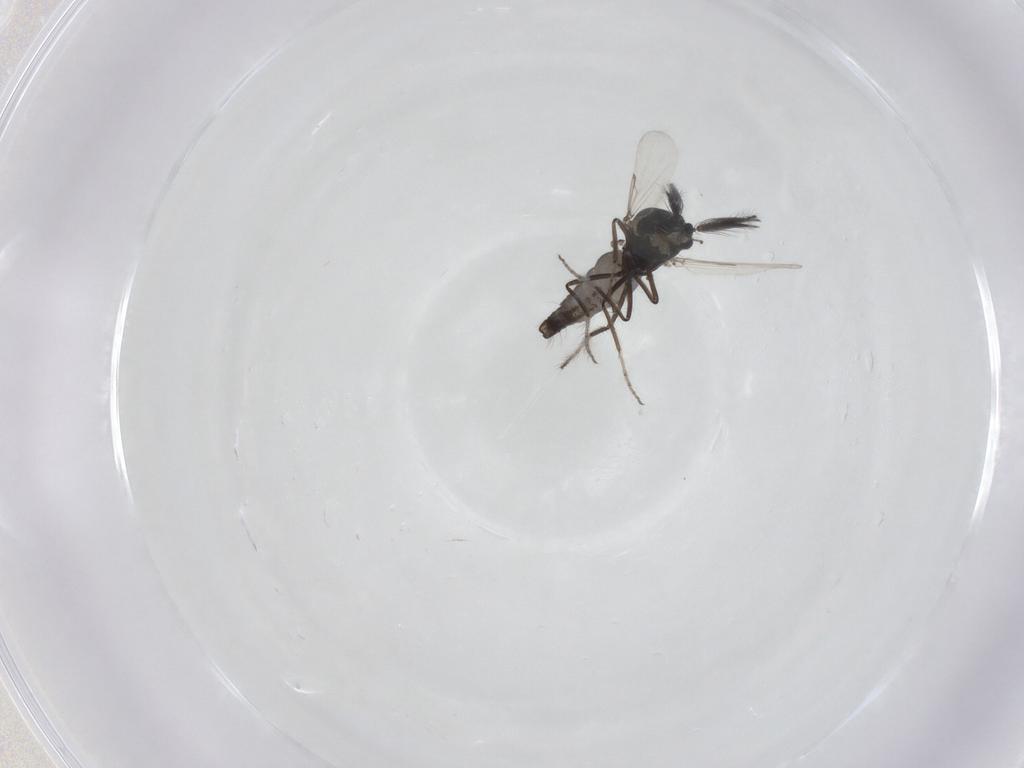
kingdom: Animalia
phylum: Arthropoda
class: Insecta
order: Diptera
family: Ceratopogonidae
